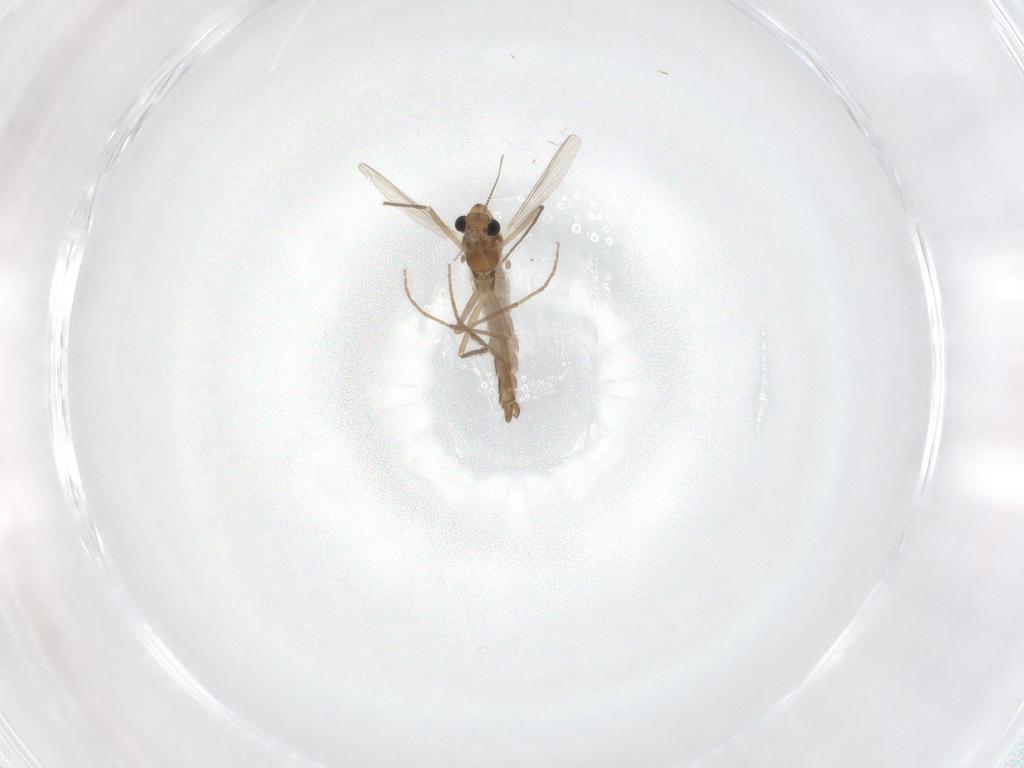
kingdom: Animalia
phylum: Arthropoda
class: Insecta
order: Diptera
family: Chironomidae
